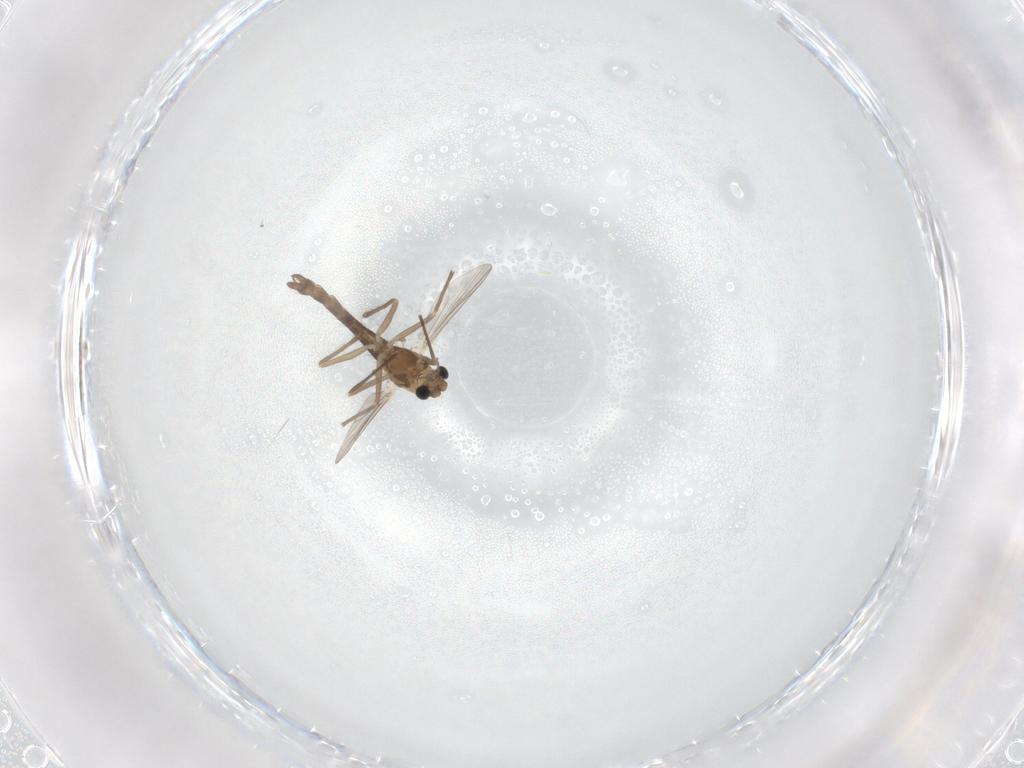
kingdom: Animalia
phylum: Arthropoda
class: Insecta
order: Diptera
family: Chironomidae
